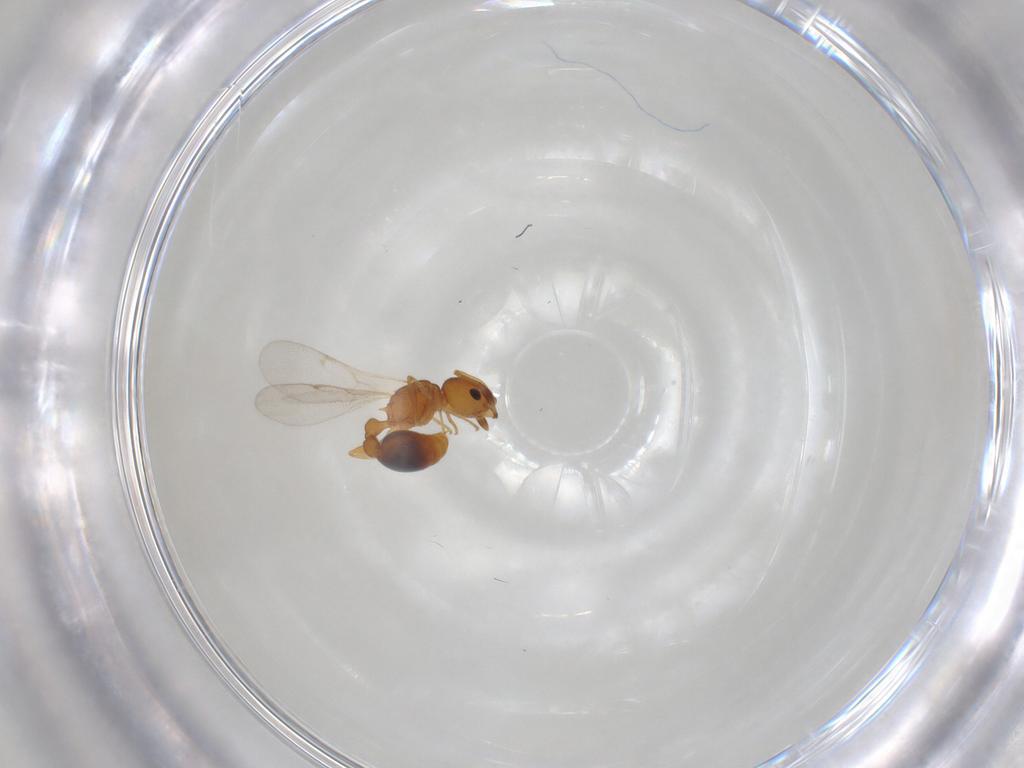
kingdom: Animalia
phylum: Arthropoda
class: Insecta
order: Hymenoptera
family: Formicidae
